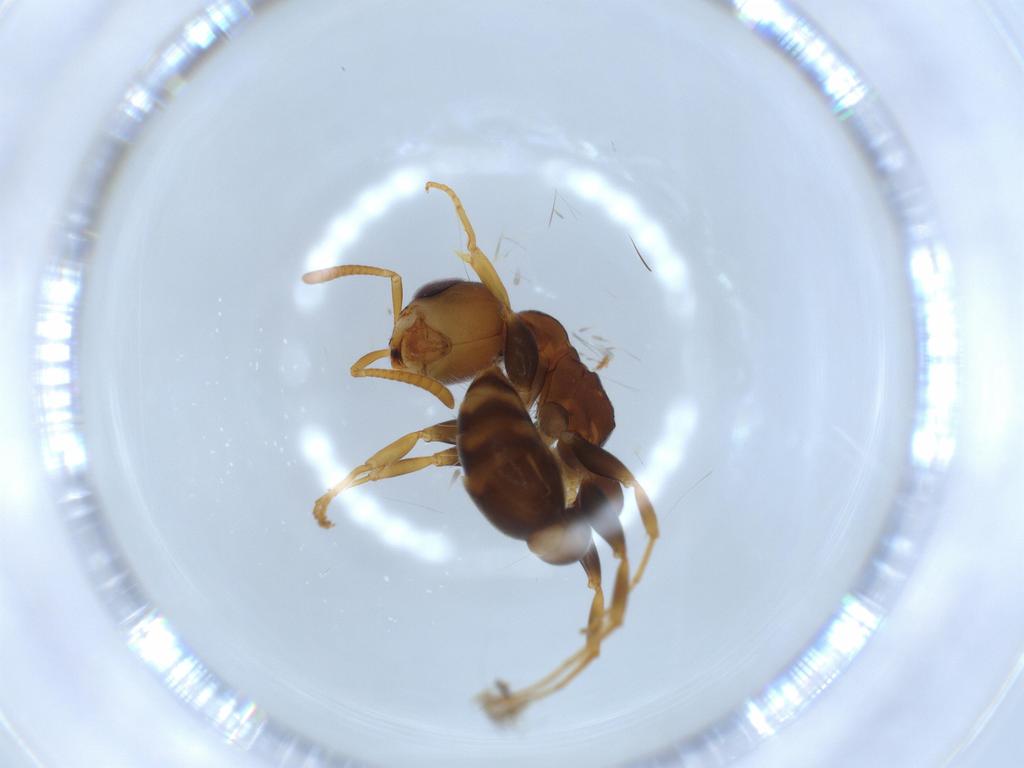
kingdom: Animalia
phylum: Arthropoda
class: Insecta
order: Hymenoptera
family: Formicidae
